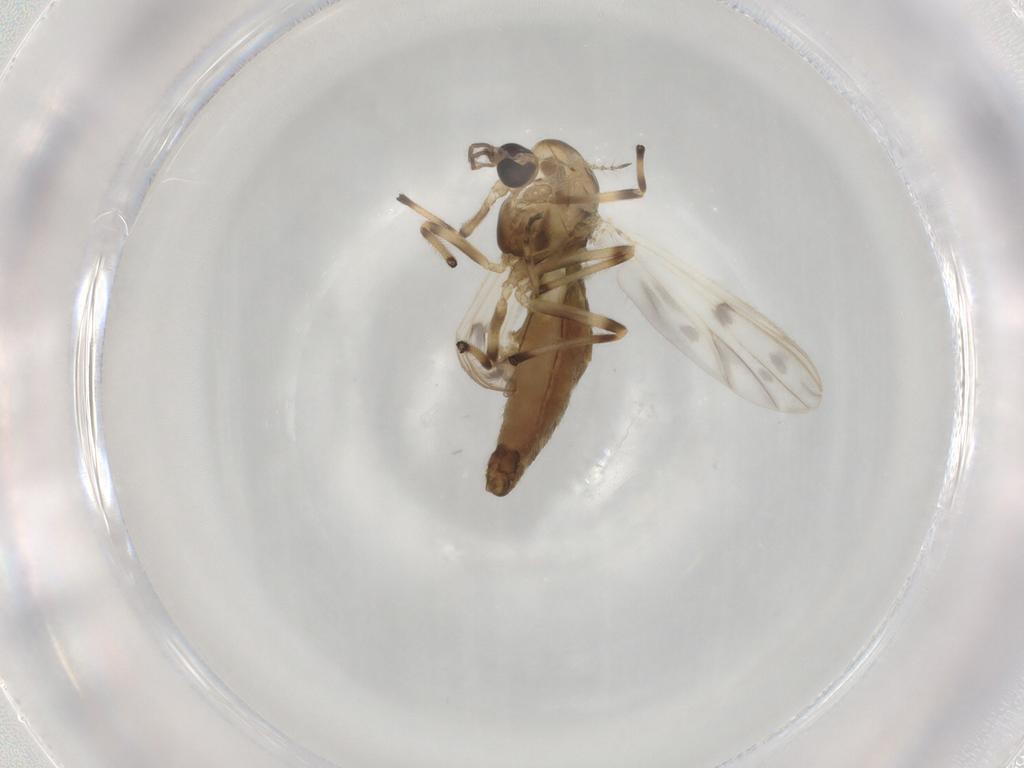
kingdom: Animalia
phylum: Arthropoda
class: Insecta
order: Diptera
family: Chironomidae
